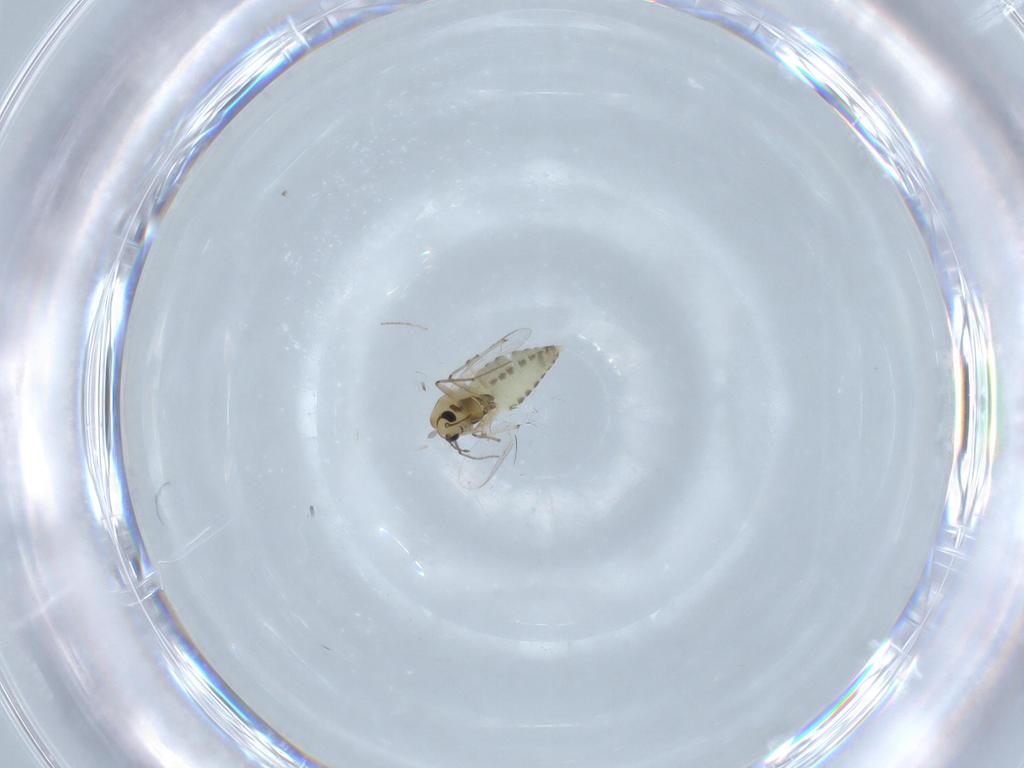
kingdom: Animalia
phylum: Arthropoda
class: Insecta
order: Diptera
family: Chironomidae
